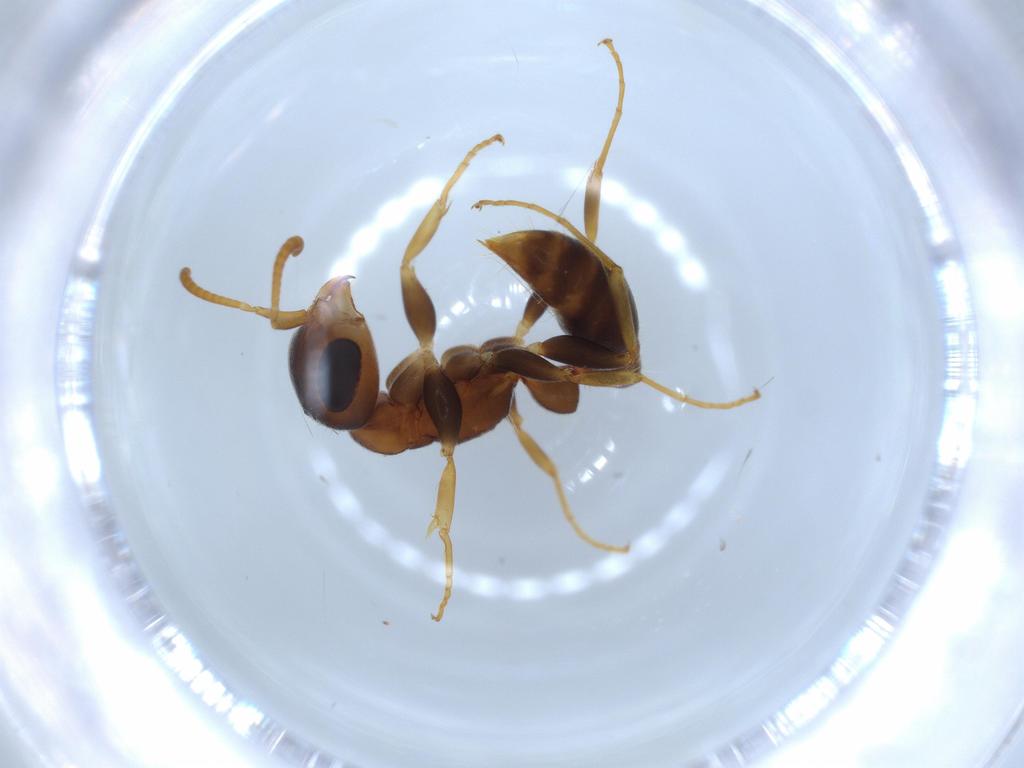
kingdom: Animalia
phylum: Arthropoda
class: Insecta
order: Hymenoptera
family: Formicidae
